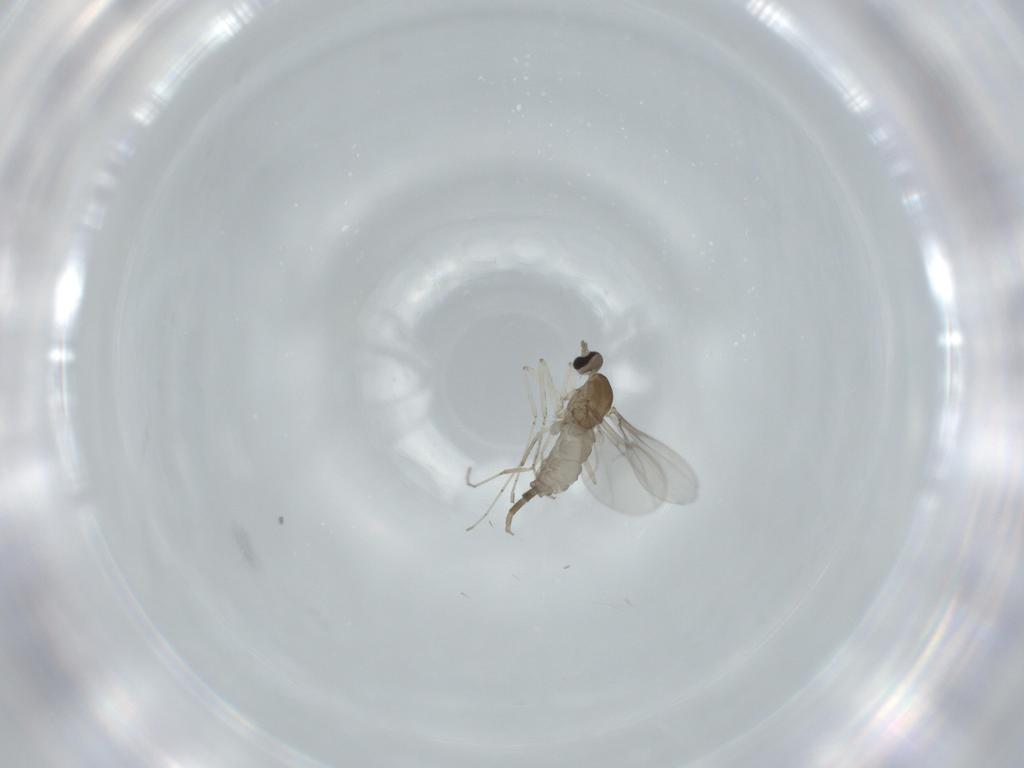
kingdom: Animalia
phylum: Arthropoda
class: Insecta
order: Diptera
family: Cecidomyiidae
